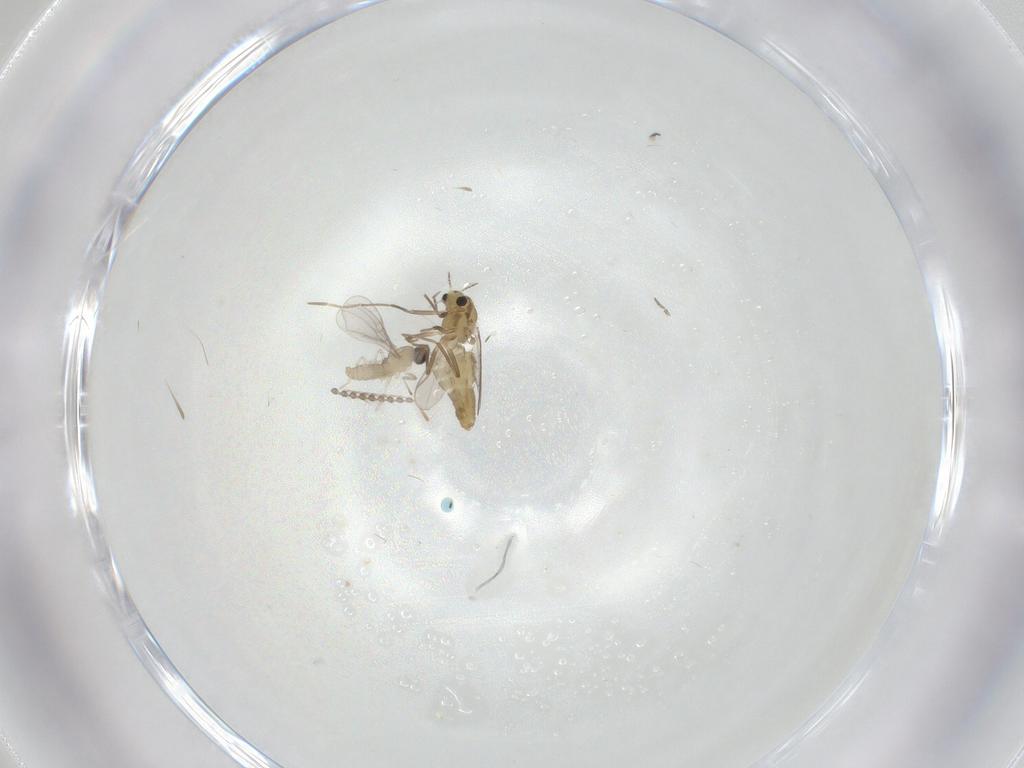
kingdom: Animalia
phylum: Arthropoda
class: Insecta
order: Diptera
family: Chironomidae
